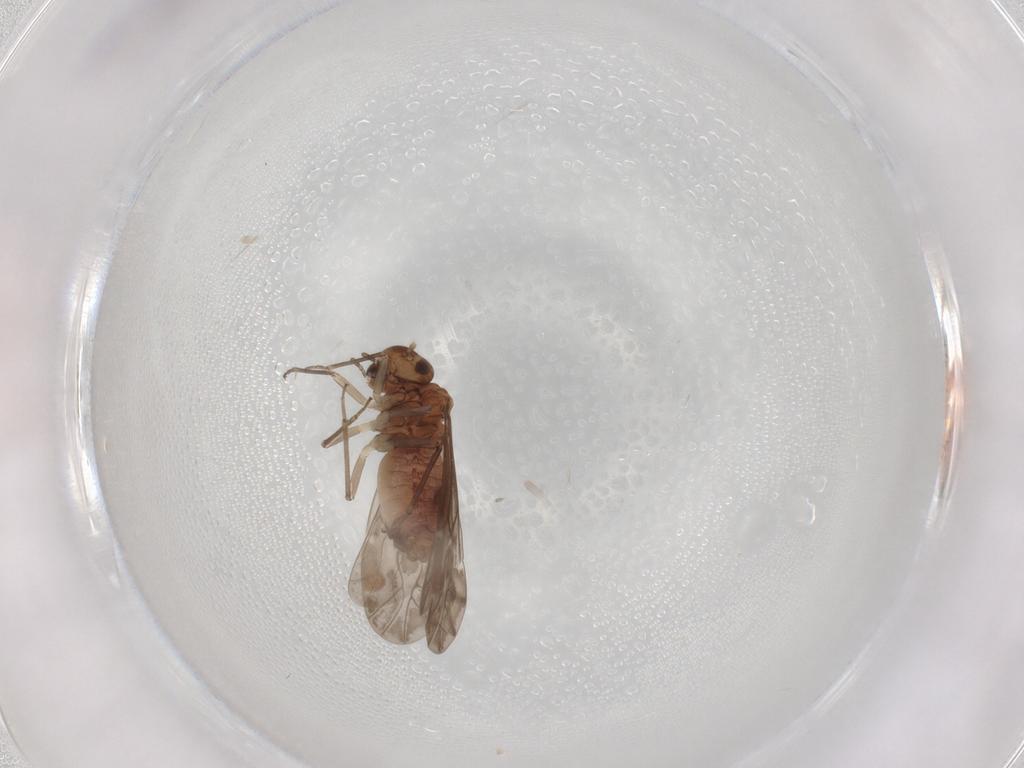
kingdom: Animalia
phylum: Arthropoda
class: Insecta
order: Psocodea
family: Peripsocidae
